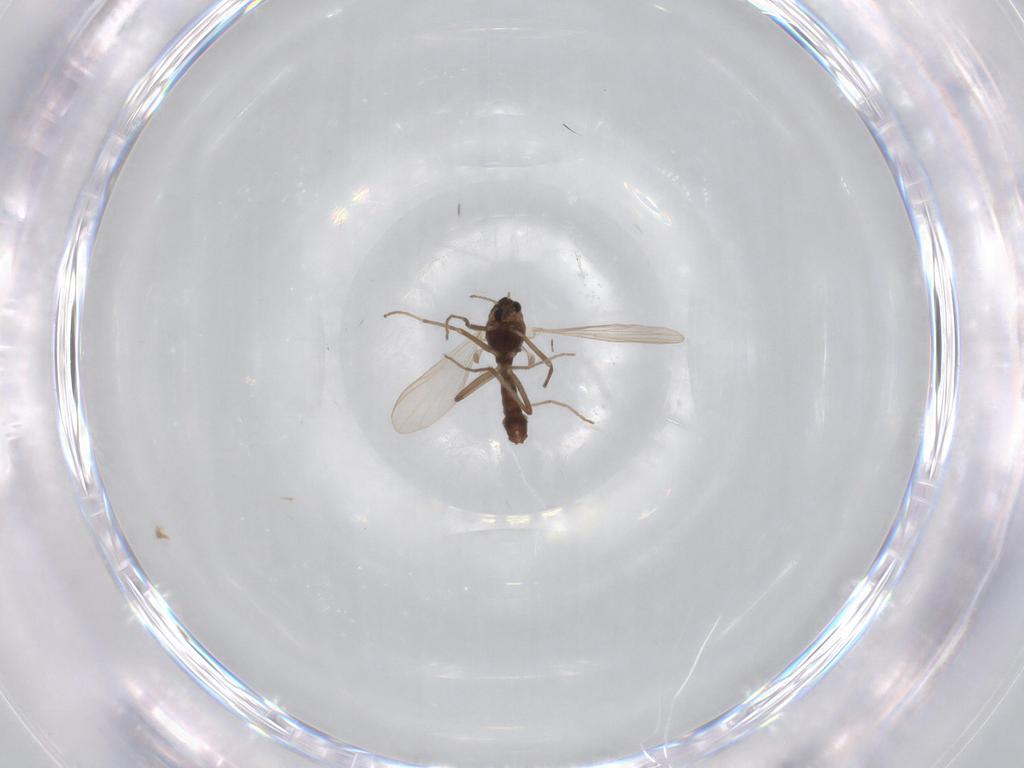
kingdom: Animalia
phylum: Arthropoda
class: Insecta
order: Diptera
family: Chironomidae
